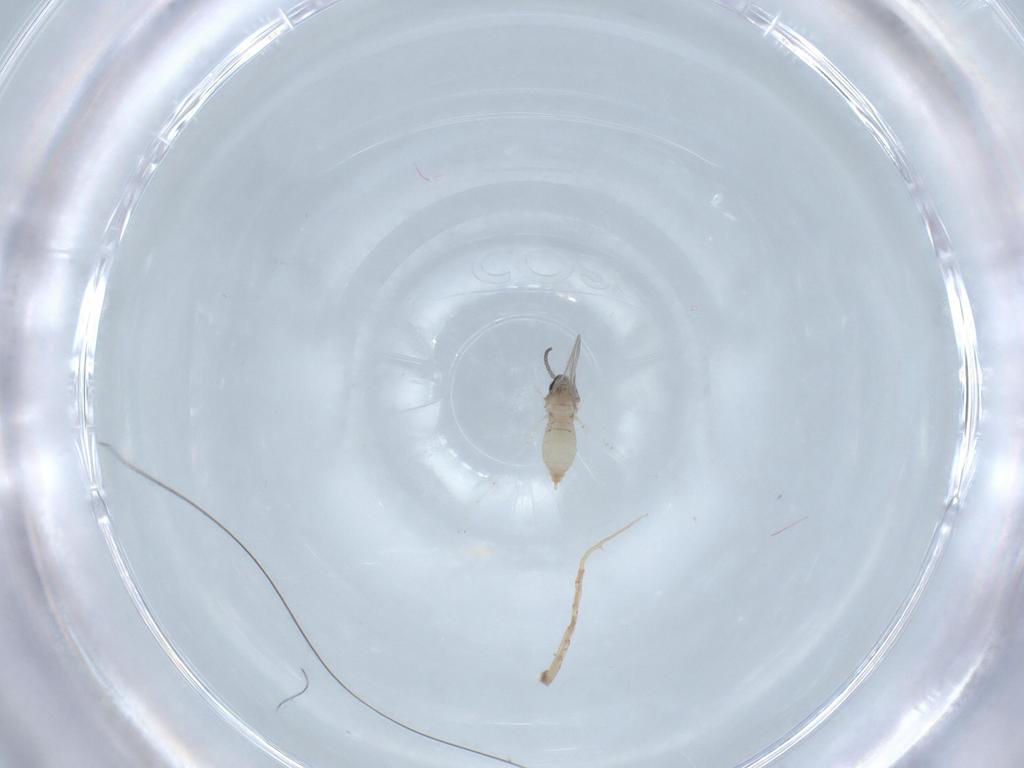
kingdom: Animalia
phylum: Arthropoda
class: Insecta
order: Diptera
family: Cecidomyiidae
